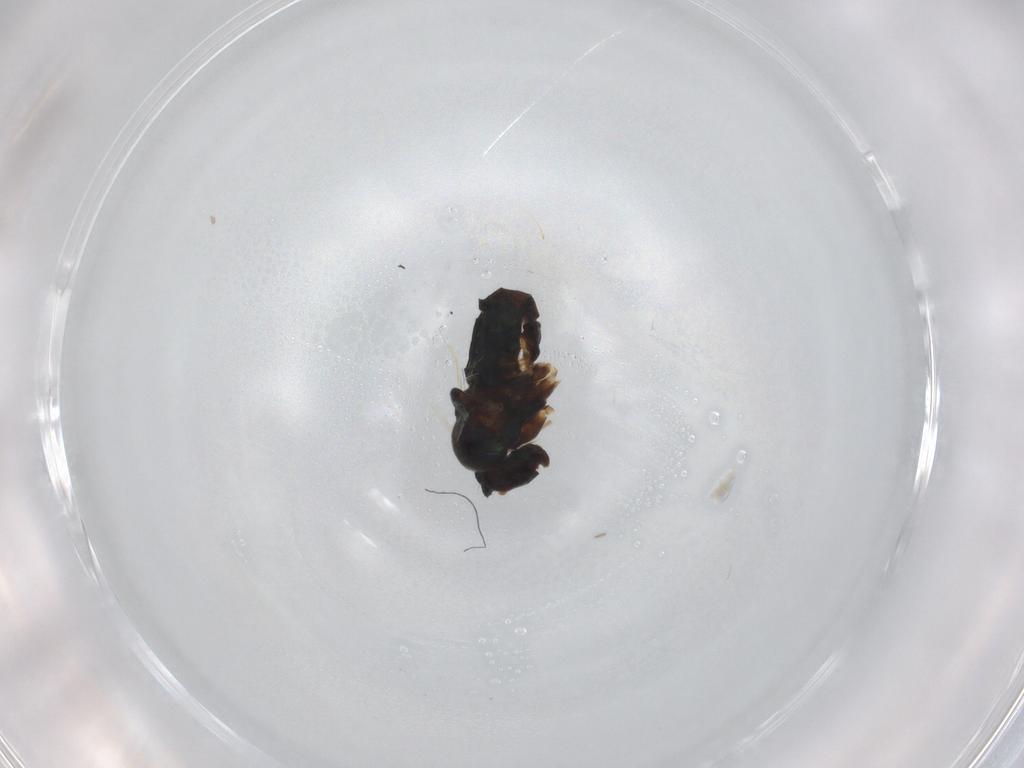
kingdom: Animalia
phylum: Arthropoda
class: Insecta
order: Diptera
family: Dolichopodidae
